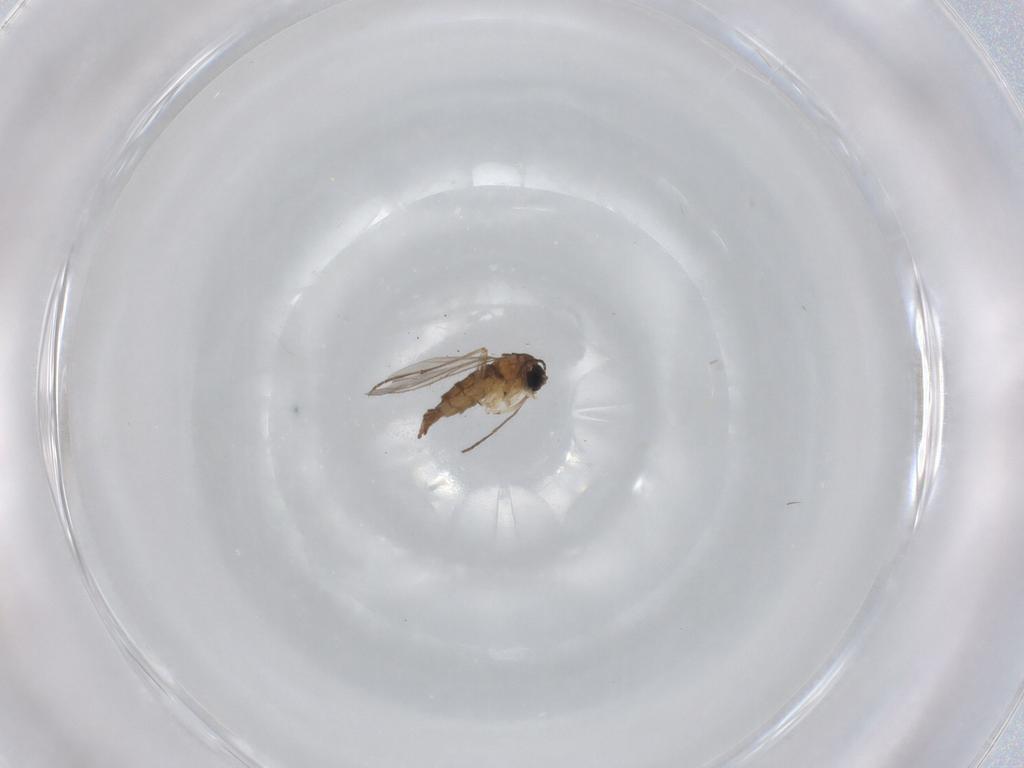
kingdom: Animalia
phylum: Arthropoda
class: Insecta
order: Diptera
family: Sciaridae
